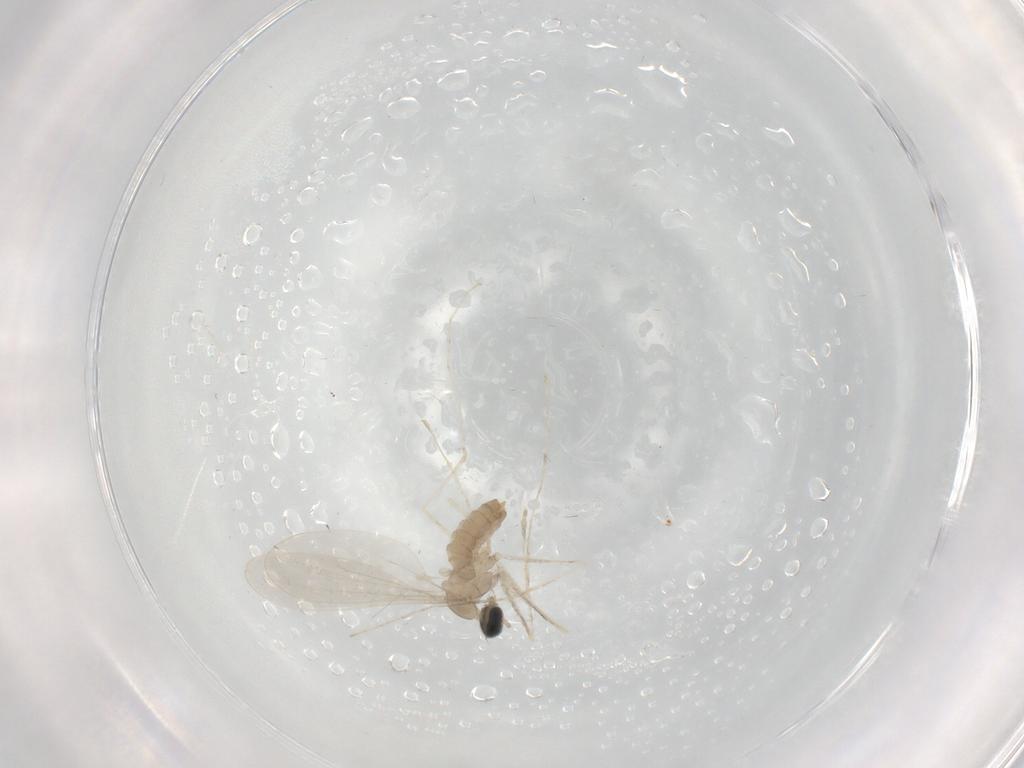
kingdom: Animalia
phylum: Arthropoda
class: Insecta
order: Diptera
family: Cecidomyiidae
